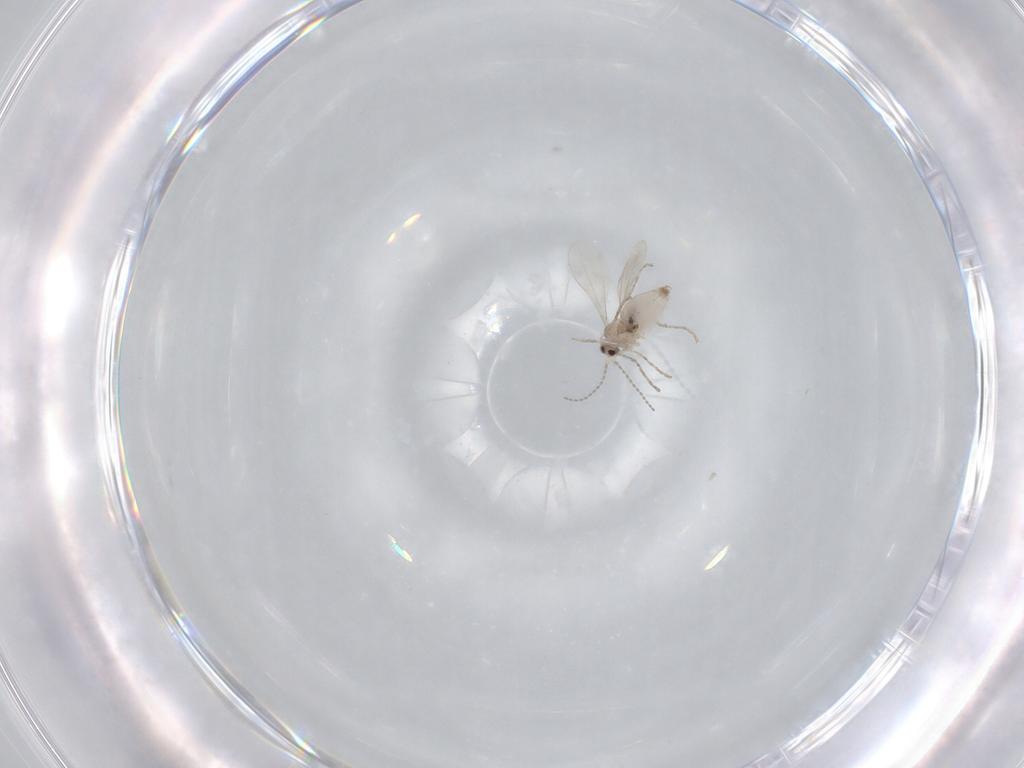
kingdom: Animalia
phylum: Arthropoda
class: Insecta
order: Diptera
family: Cecidomyiidae
